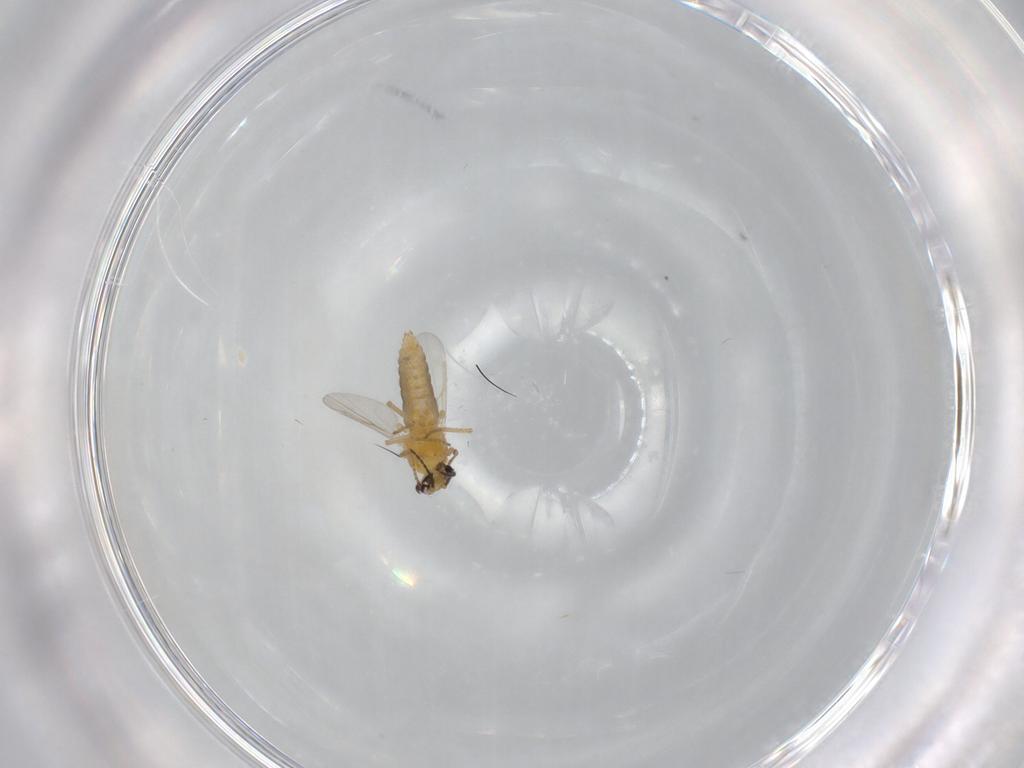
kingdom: Animalia
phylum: Arthropoda
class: Insecta
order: Diptera
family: Ceratopogonidae
